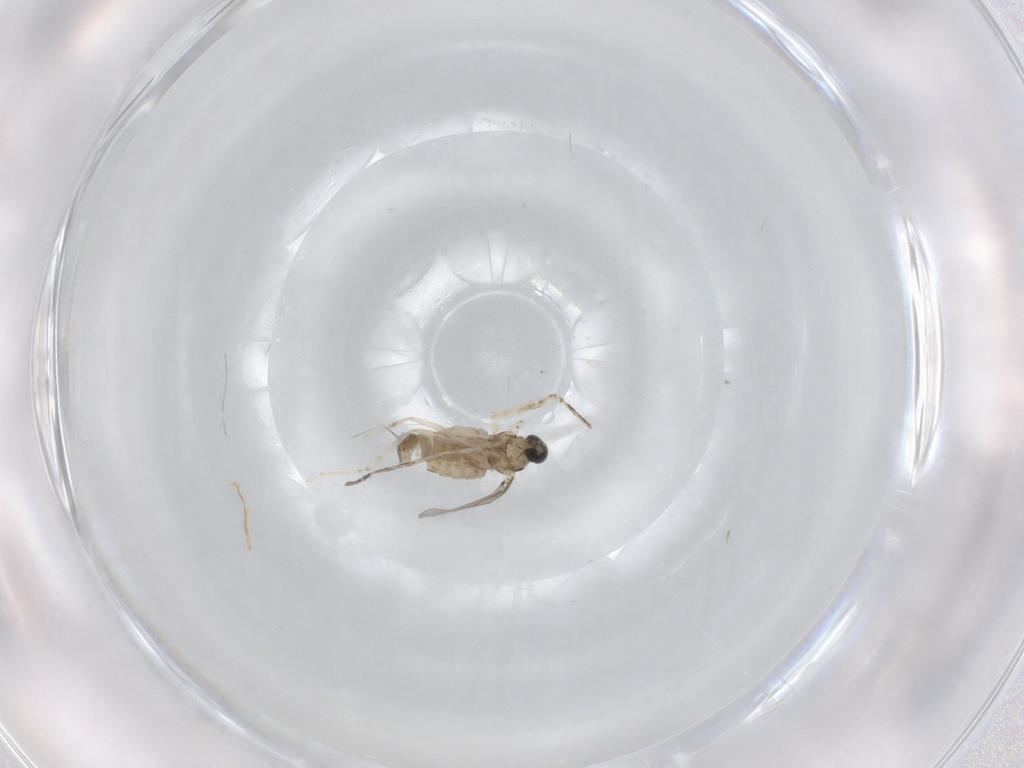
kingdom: Animalia
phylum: Arthropoda
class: Insecta
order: Diptera
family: Cecidomyiidae
